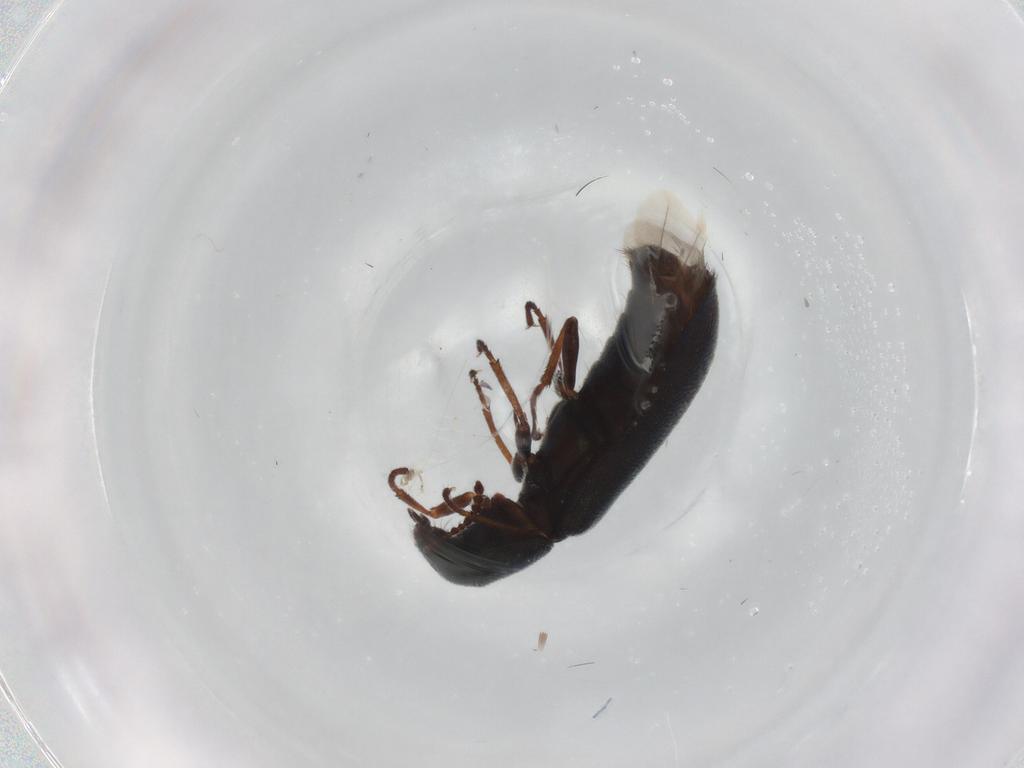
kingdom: Animalia
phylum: Arthropoda
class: Insecta
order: Coleoptera
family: Melyridae
